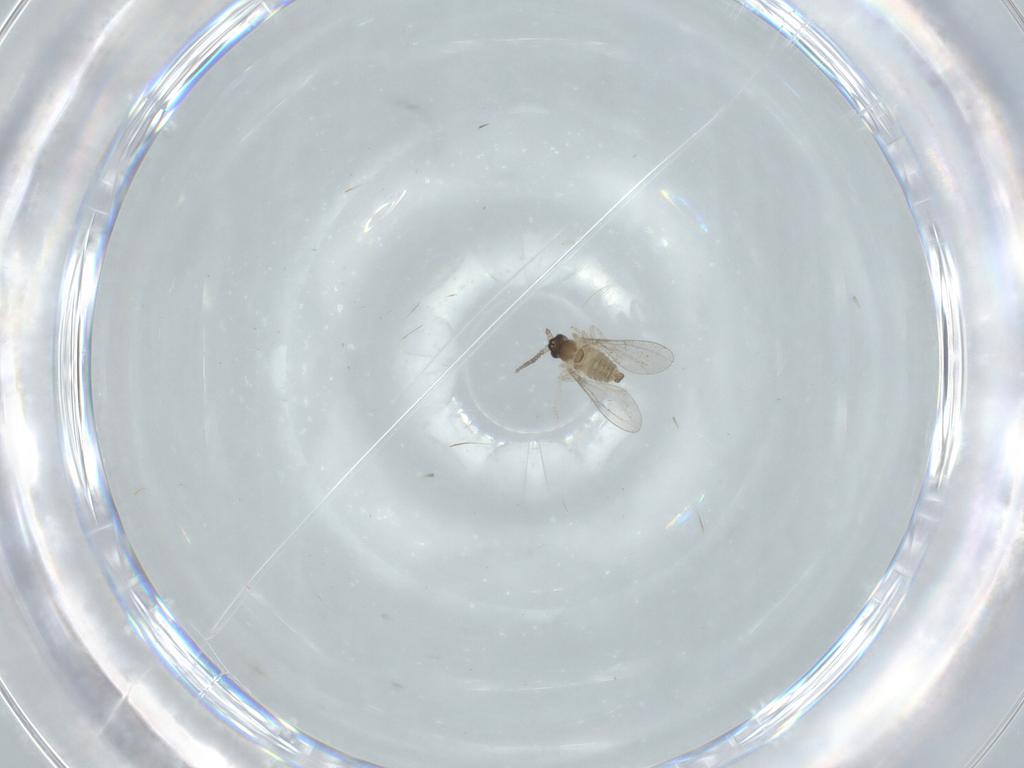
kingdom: Animalia
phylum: Arthropoda
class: Insecta
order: Diptera
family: Cecidomyiidae
